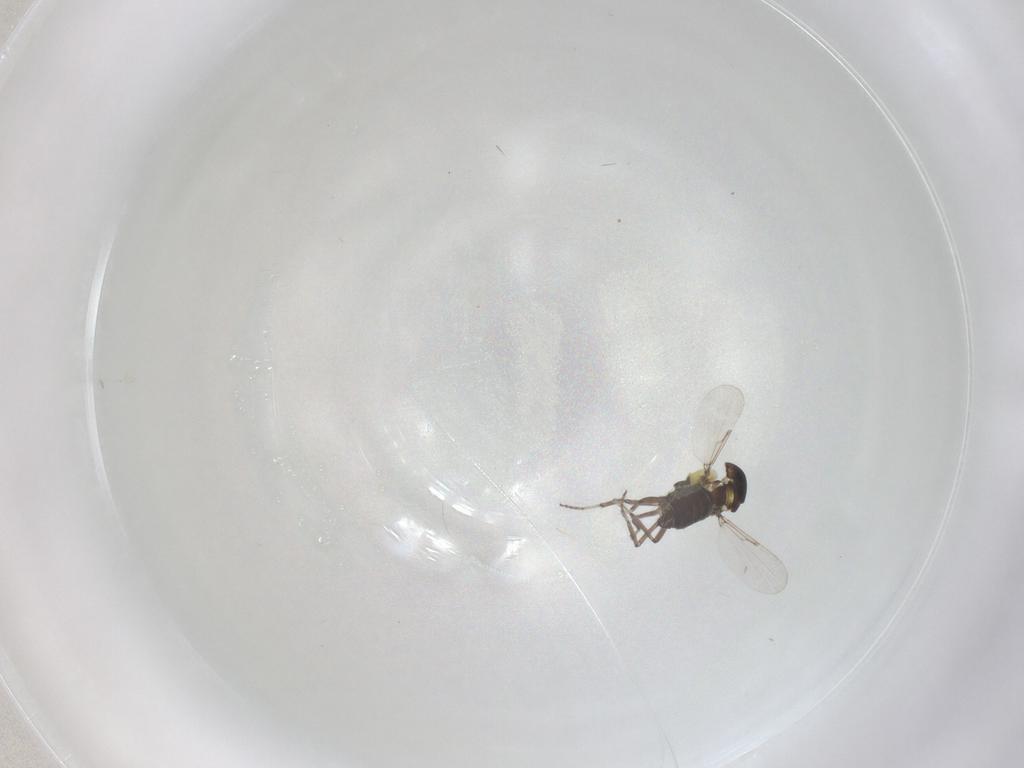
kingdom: Animalia
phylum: Arthropoda
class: Insecta
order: Diptera
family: Ceratopogonidae
